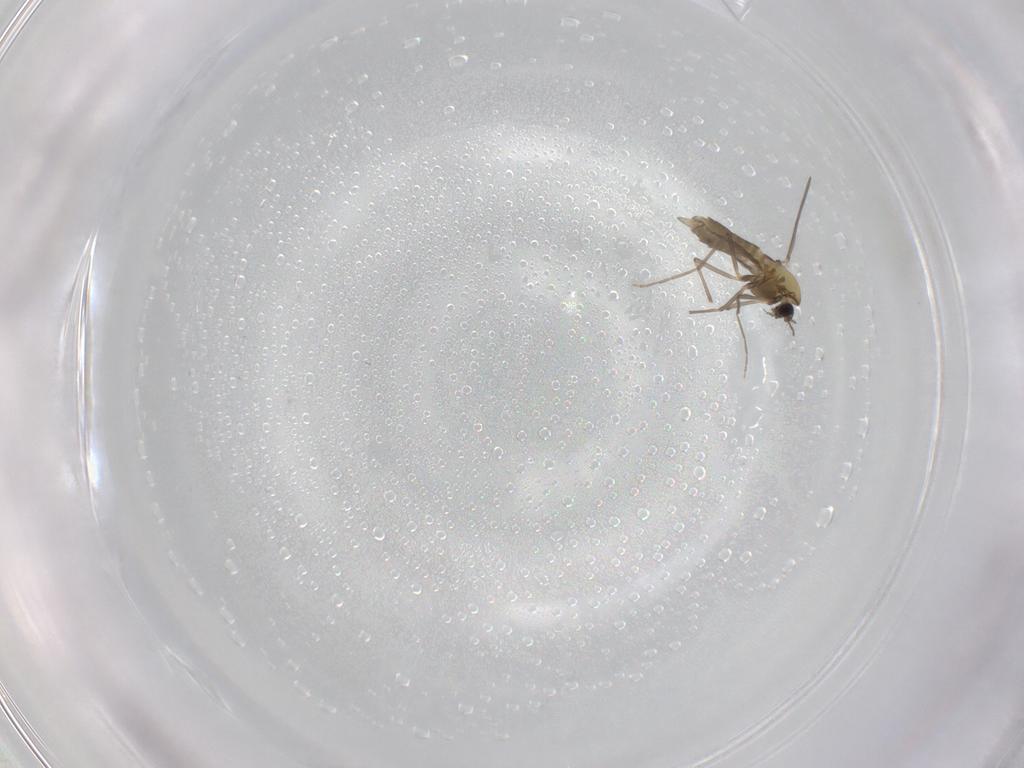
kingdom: Animalia
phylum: Arthropoda
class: Insecta
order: Diptera
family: Chironomidae
